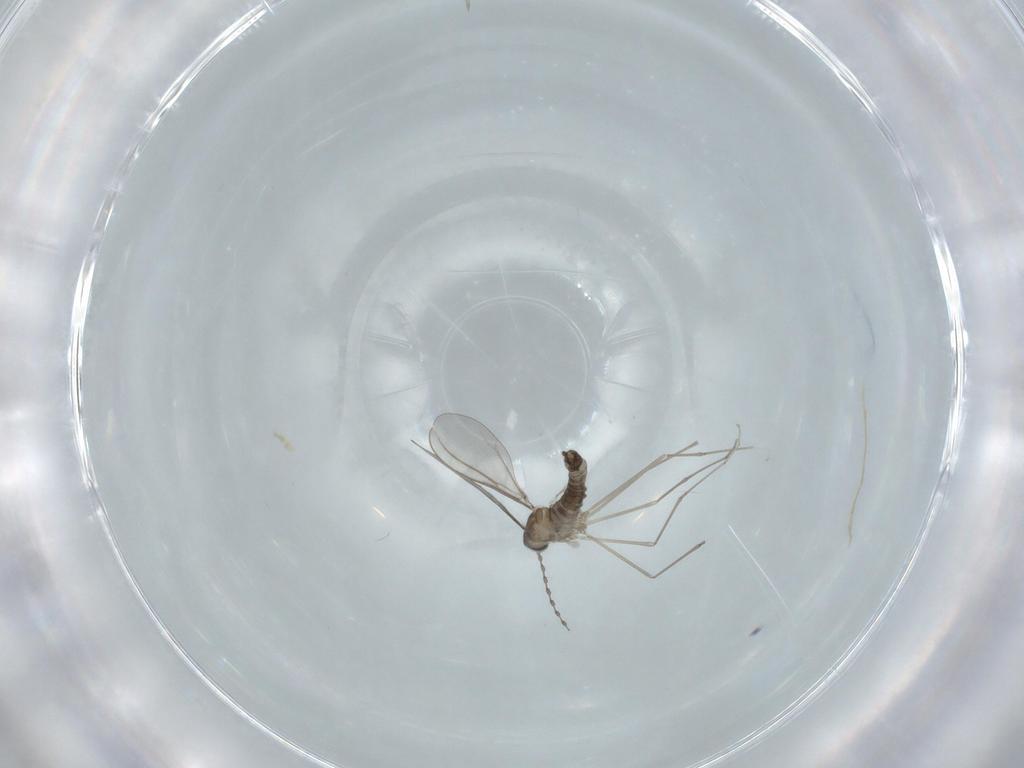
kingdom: Animalia
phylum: Arthropoda
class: Insecta
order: Diptera
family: Cecidomyiidae
